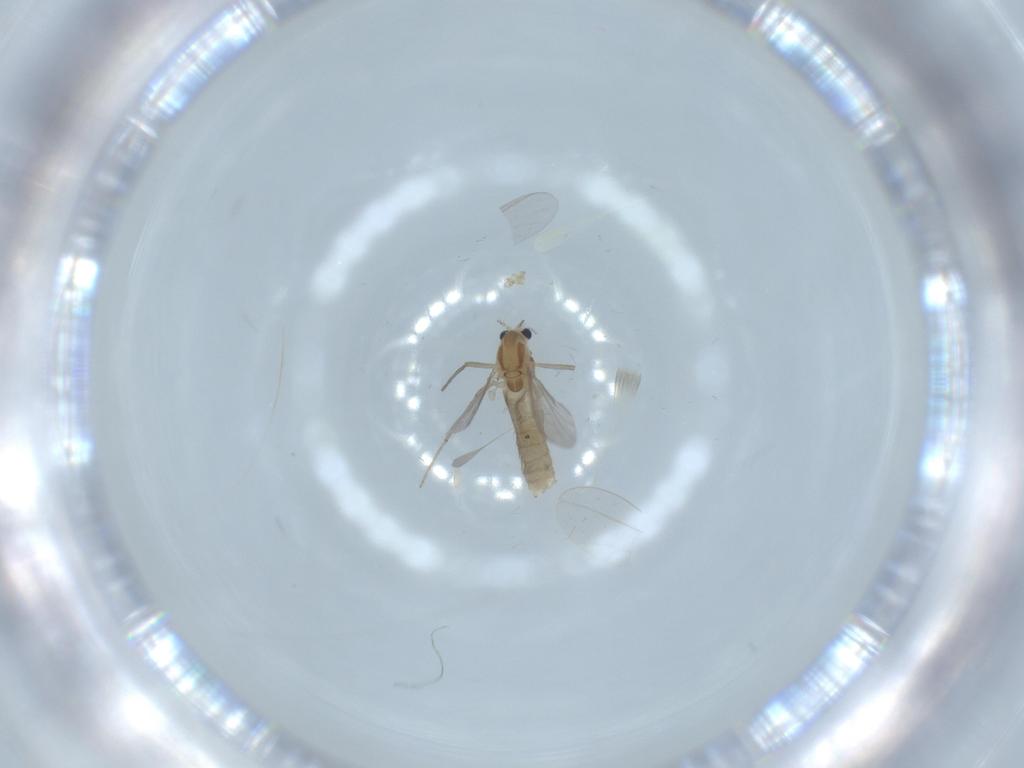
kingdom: Animalia
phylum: Arthropoda
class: Insecta
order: Diptera
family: Chironomidae
